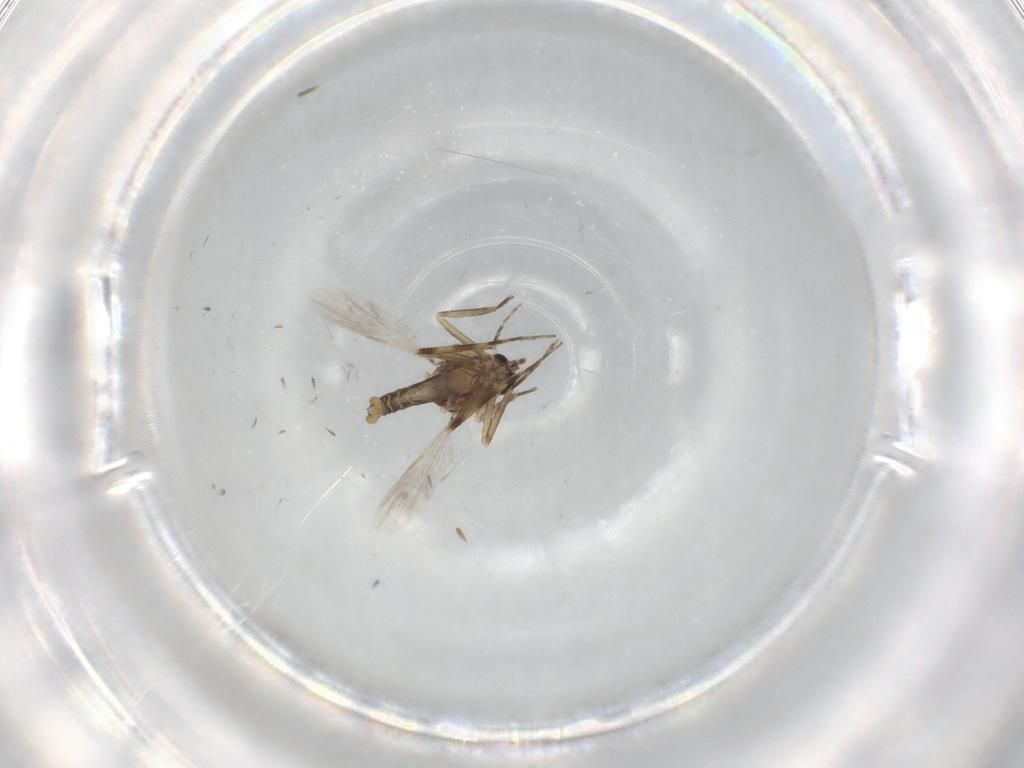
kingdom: Animalia
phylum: Arthropoda
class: Insecta
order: Diptera
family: Ceratopogonidae
